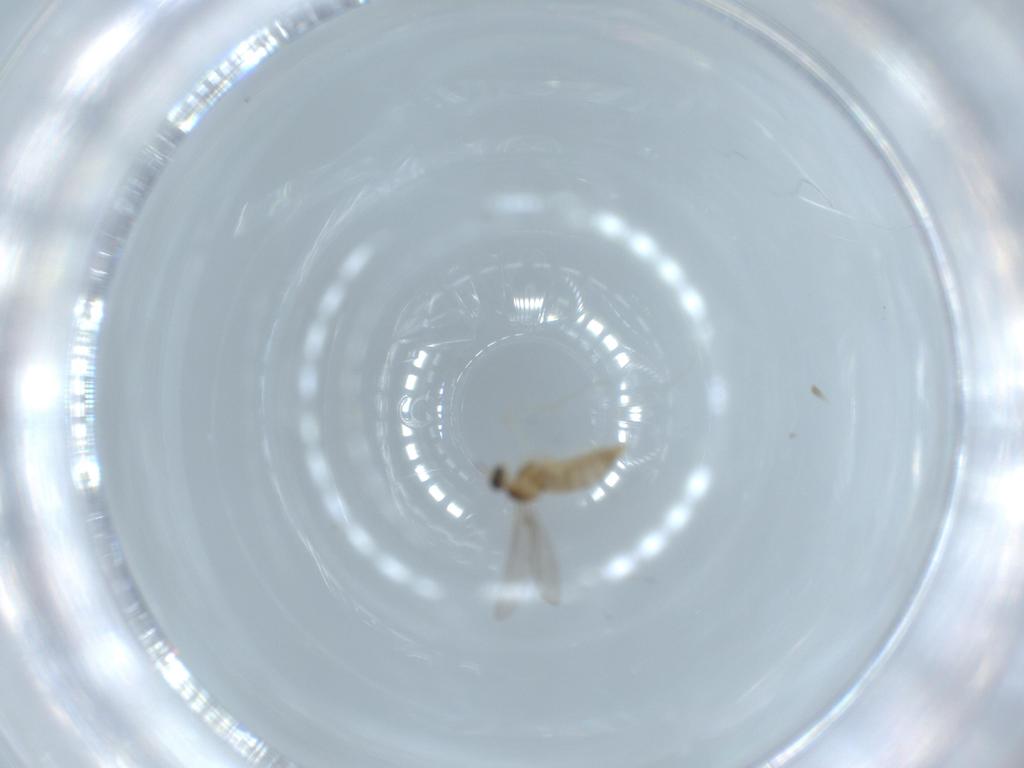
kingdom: Animalia
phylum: Arthropoda
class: Insecta
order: Diptera
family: Cecidomyiidae
